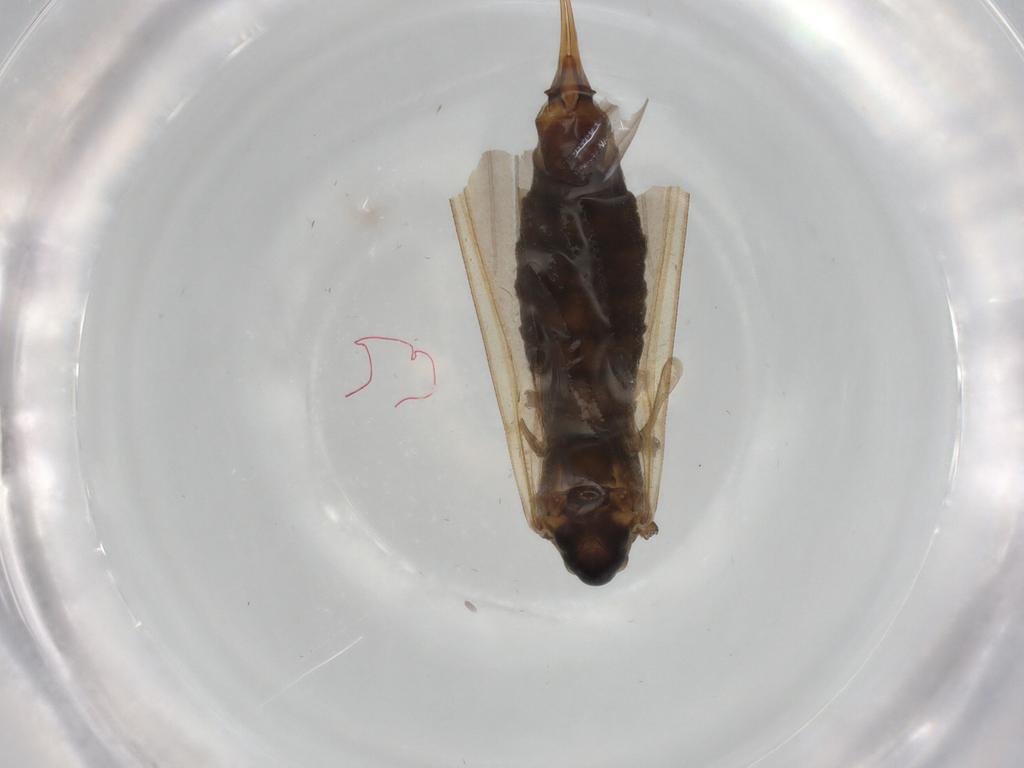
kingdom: Animalia
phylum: Arthropoda
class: Insecta
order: Diptera
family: Limoniidae
